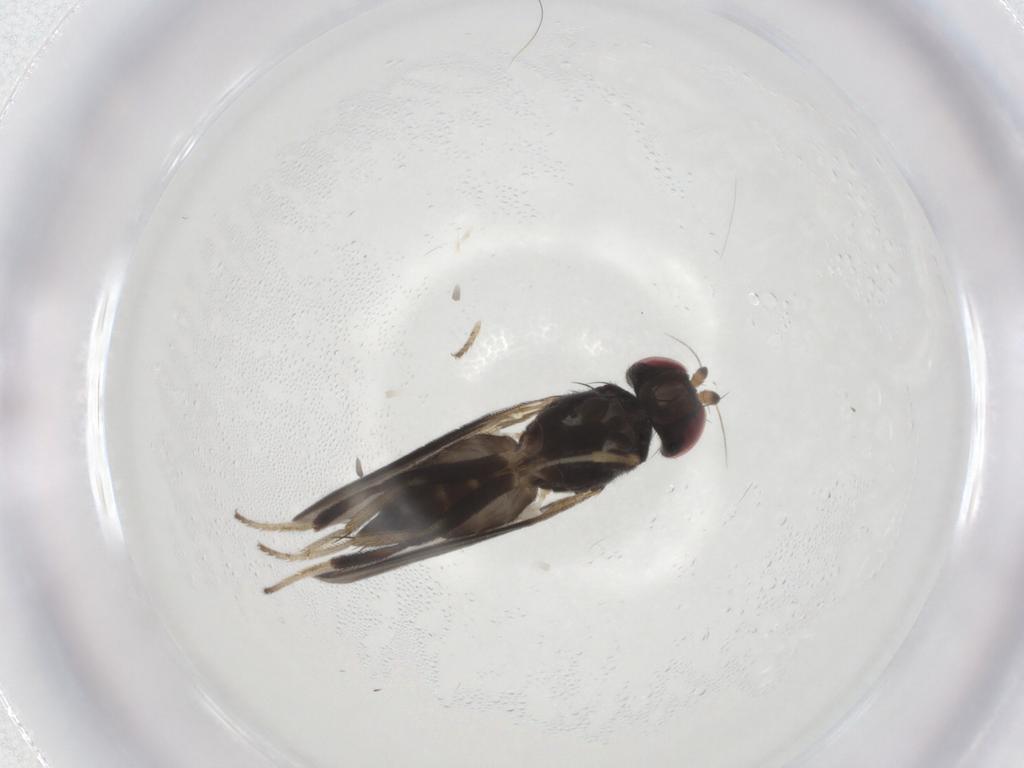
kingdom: Animalia
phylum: Arthropoda
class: Insecta
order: Diptera
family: Clusiidae
